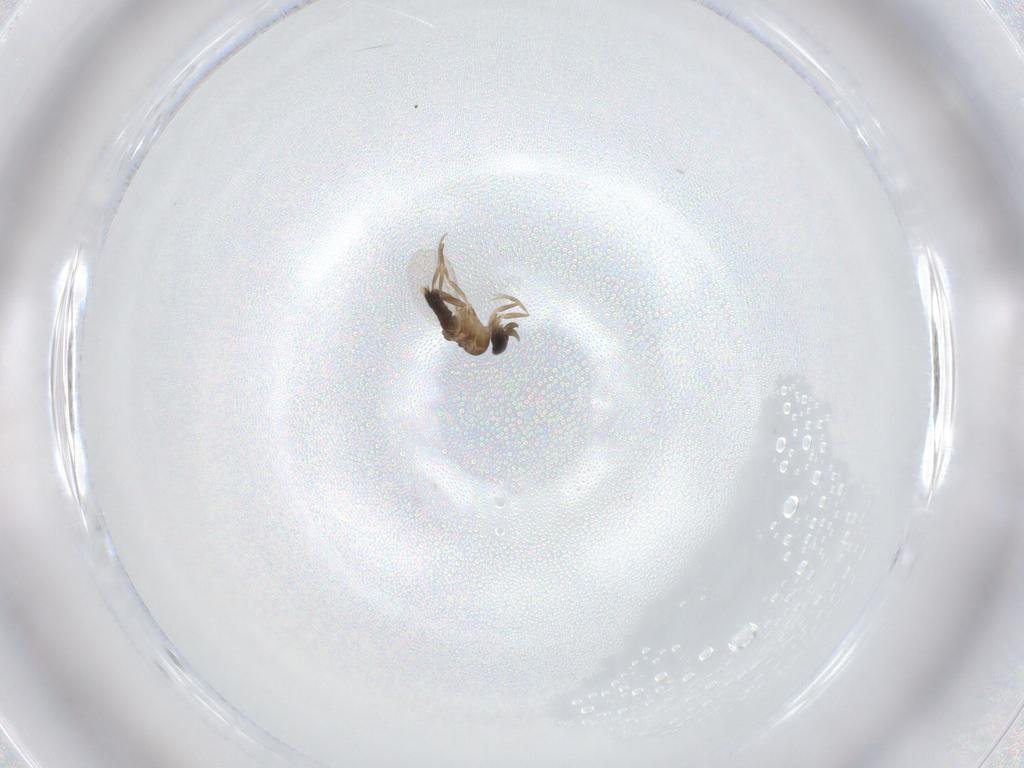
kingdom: Animalia
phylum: Arthropoda
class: Insecta
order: Diptera
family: Phoridae
